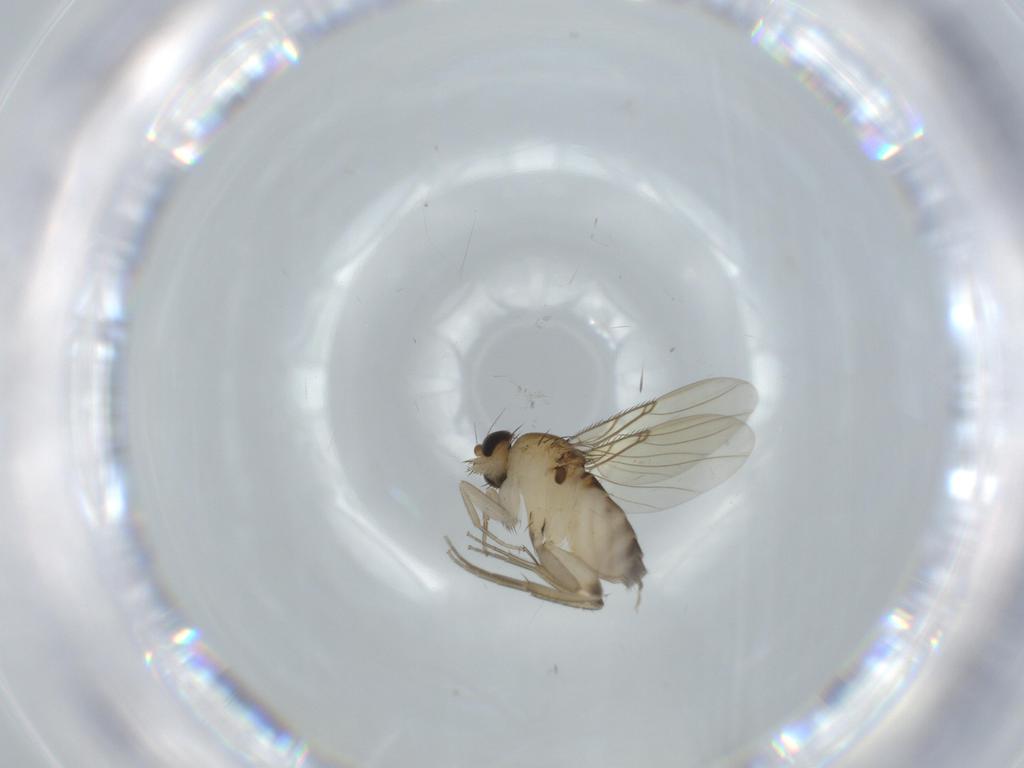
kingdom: Animalia
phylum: Arthropoda
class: Insecta
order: Diptera
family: Phoridae
